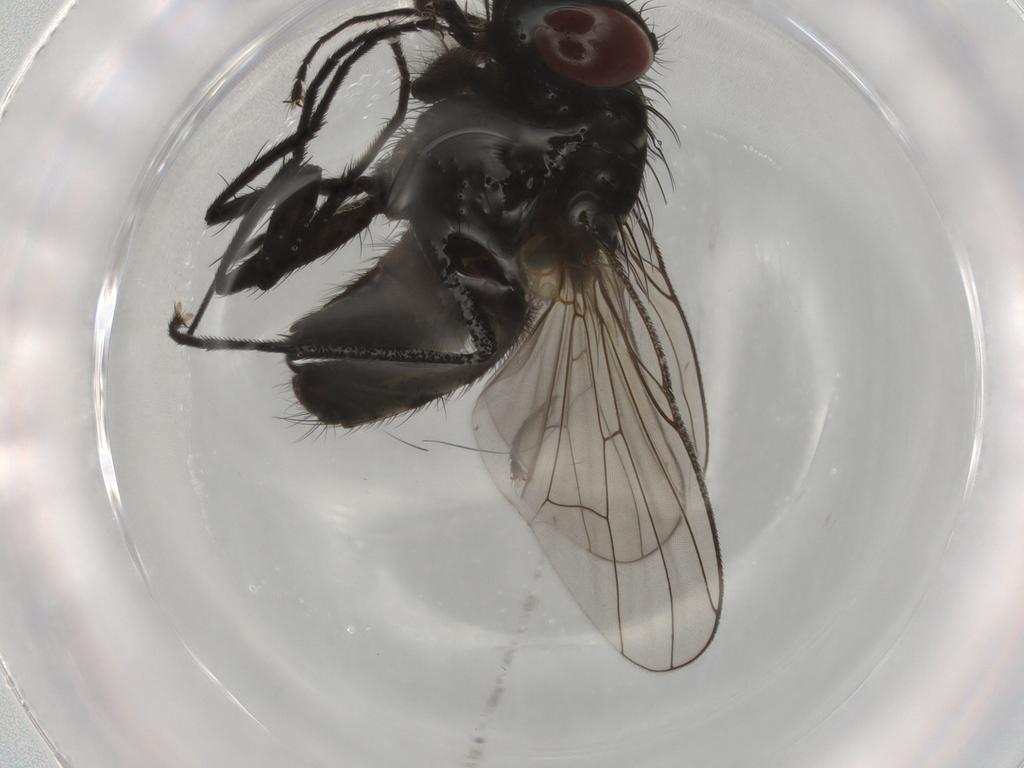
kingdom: Animalia
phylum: Arthropoda
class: Insecta
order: Diptera
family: Muscidae
